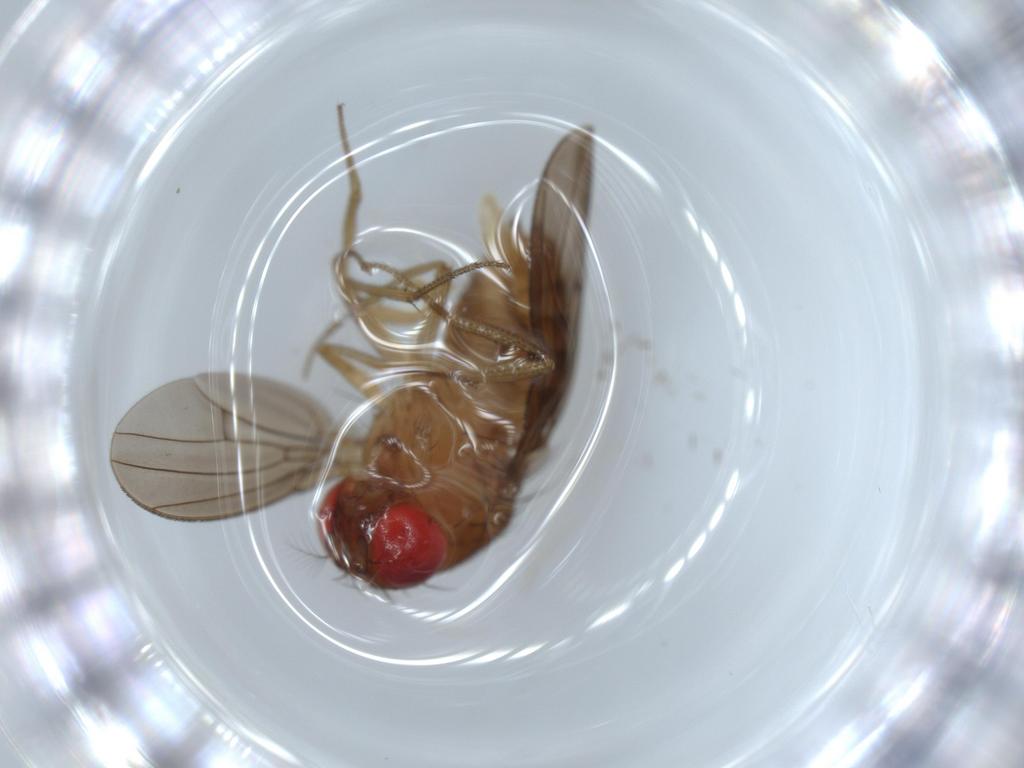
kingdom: Animalia
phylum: Arthropoda
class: Insecta
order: Diptera
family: Drosophilidae
